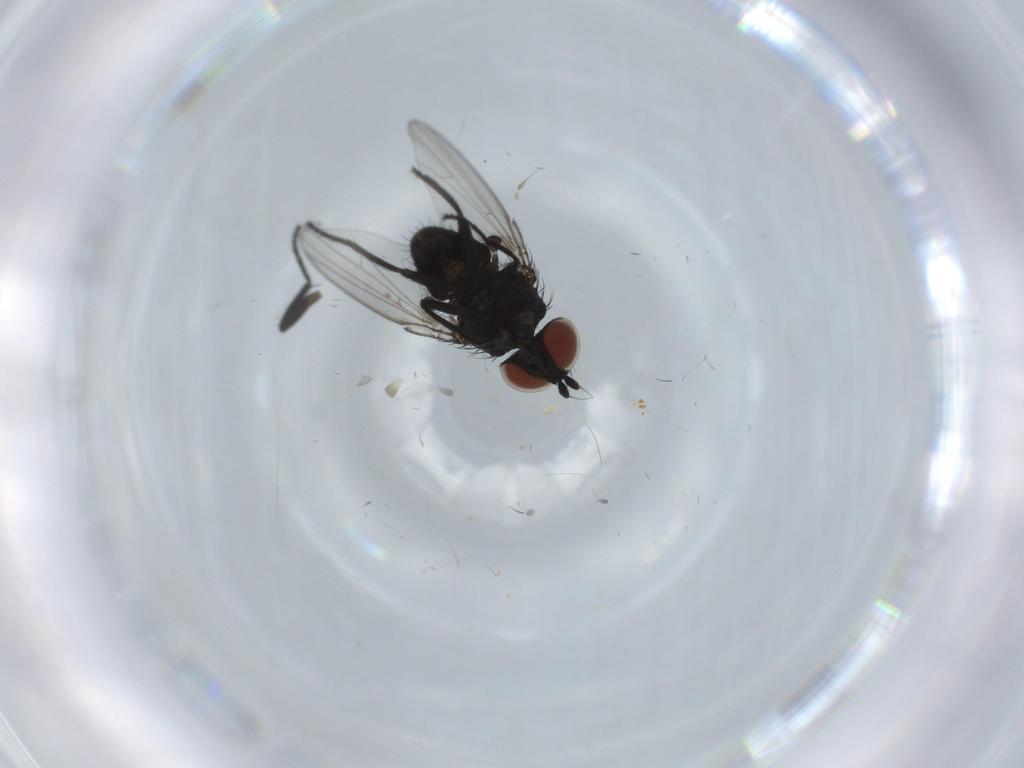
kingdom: Animalia
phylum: Arthropoda
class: Insecta
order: Diptera
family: Milichiidae
